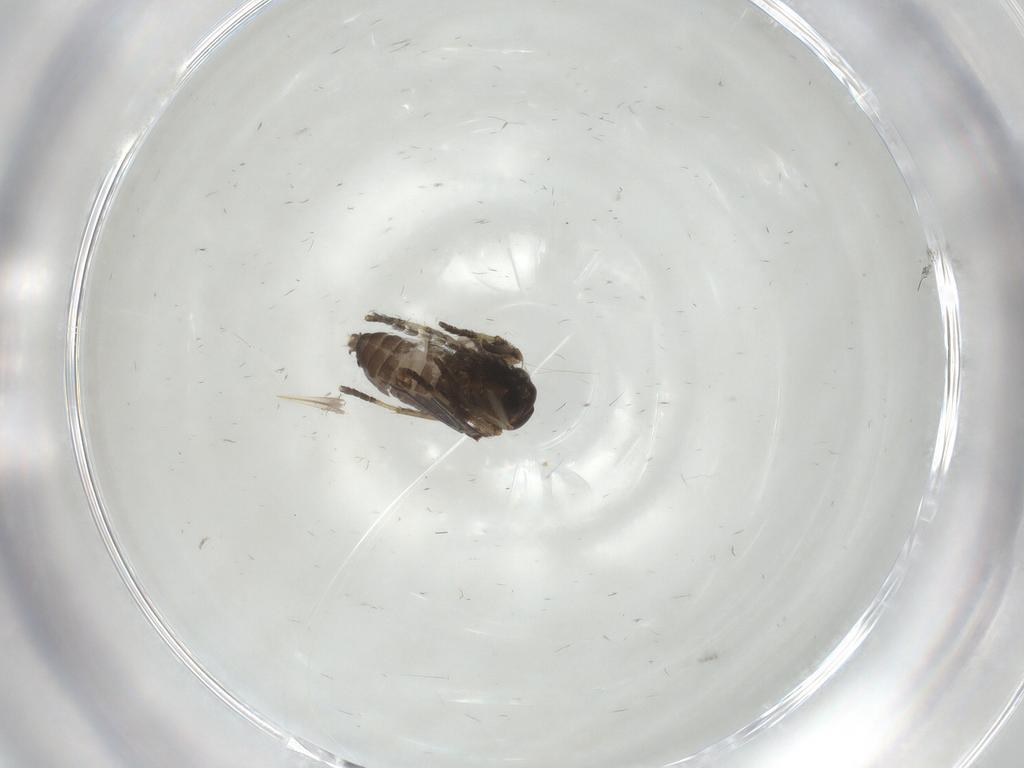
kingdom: Animalia
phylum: Arthropoda
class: Insecta
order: Diptera
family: Psychodidae
